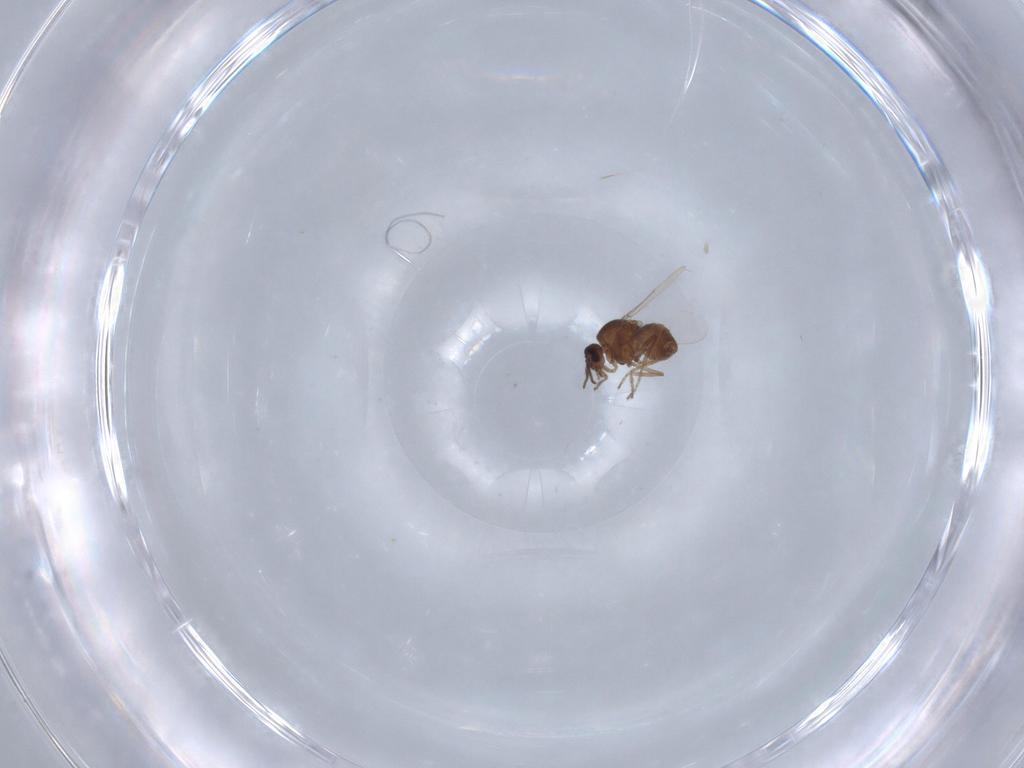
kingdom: Animalia
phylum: Arthropoda
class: Insecta
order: Diptera
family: Ceratopogonidae
